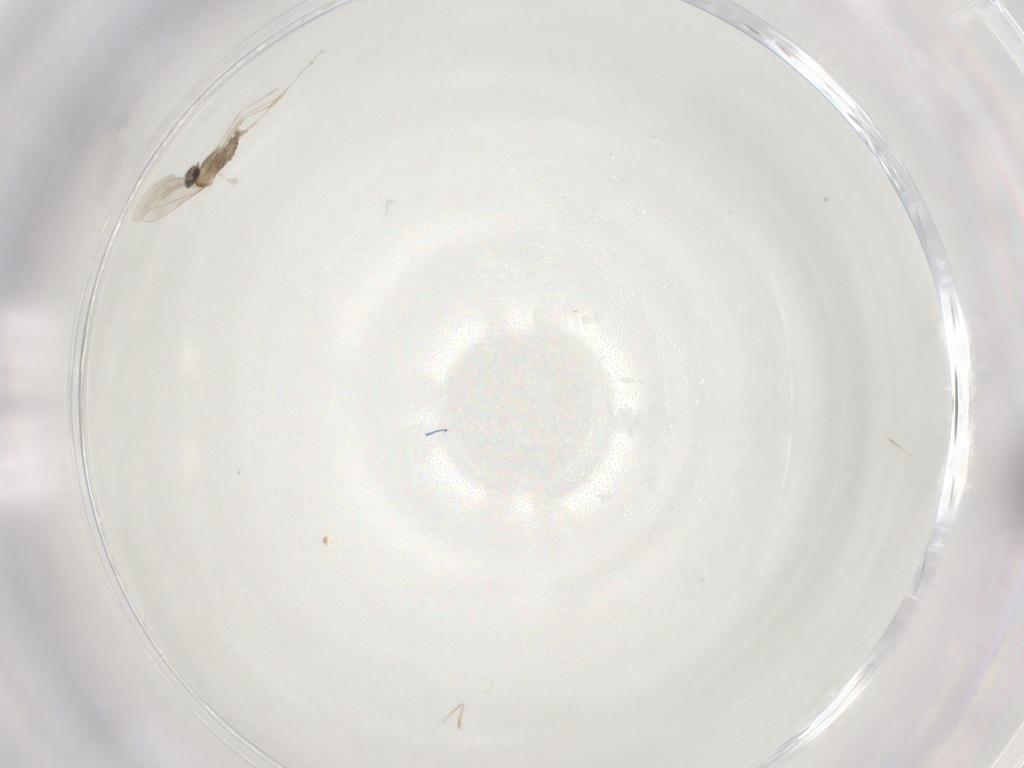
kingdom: Animalia
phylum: Arthropoda
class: Insecta
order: Diptera
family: Cecidomyiidae
